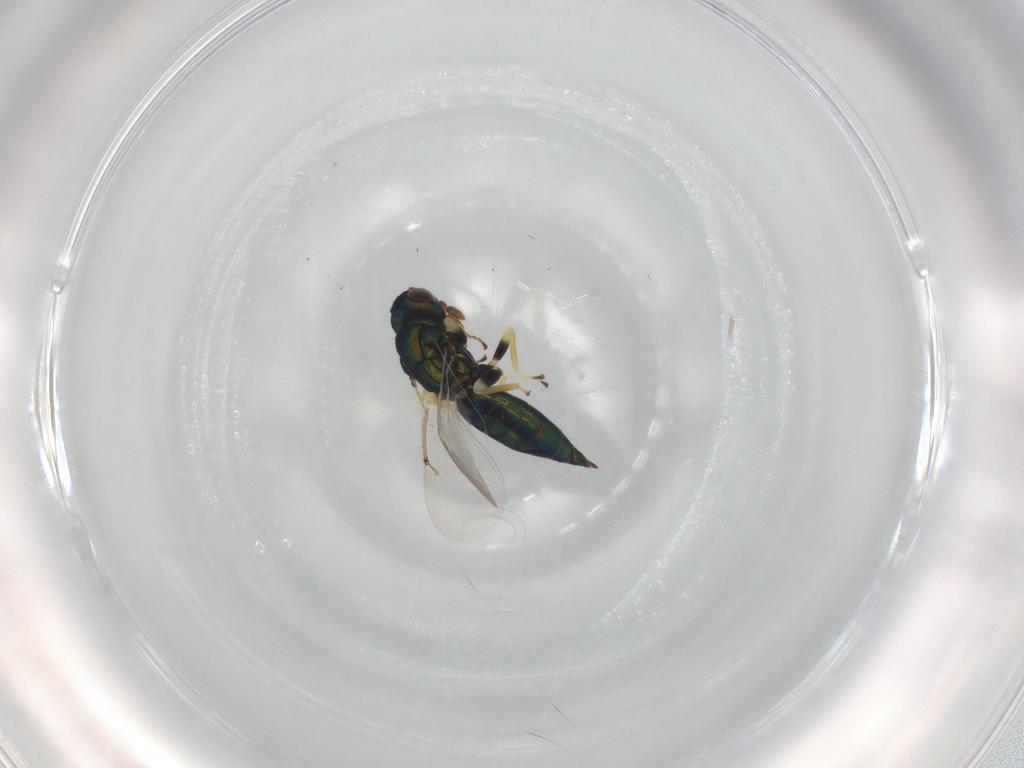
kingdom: Animalia
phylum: Arthropoda
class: Insecta
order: Hymenoptera
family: Eulophidae
